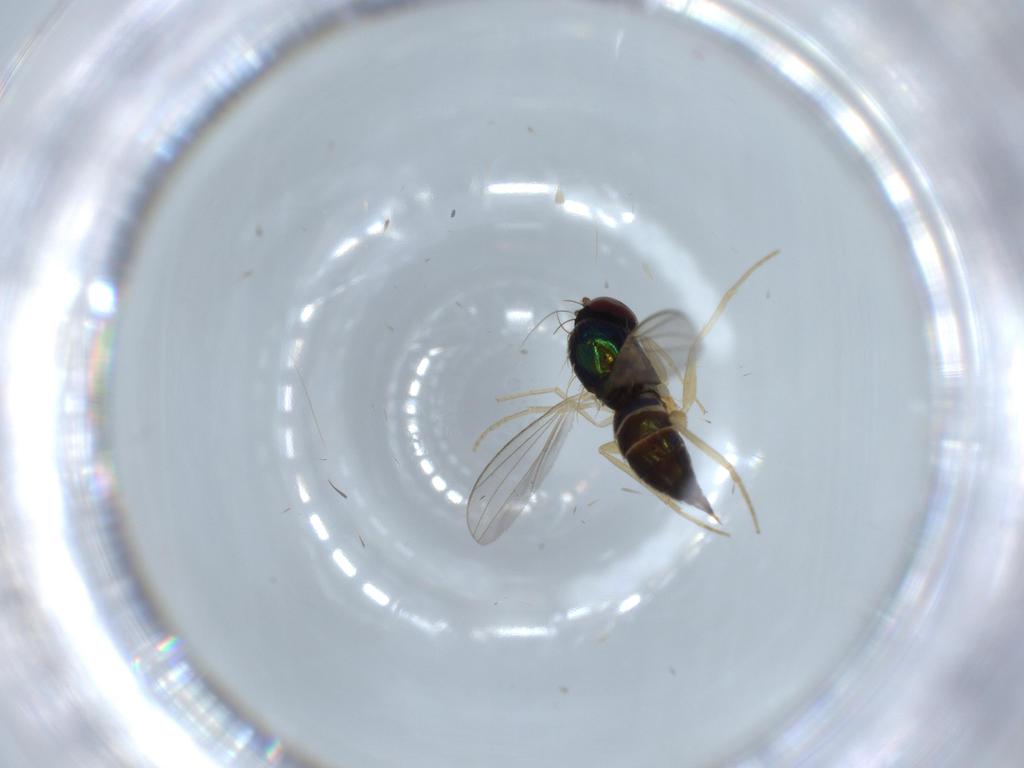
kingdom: Animalia
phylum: Arthropoda
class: Insecta
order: Diptera
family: Dolichopodidae
